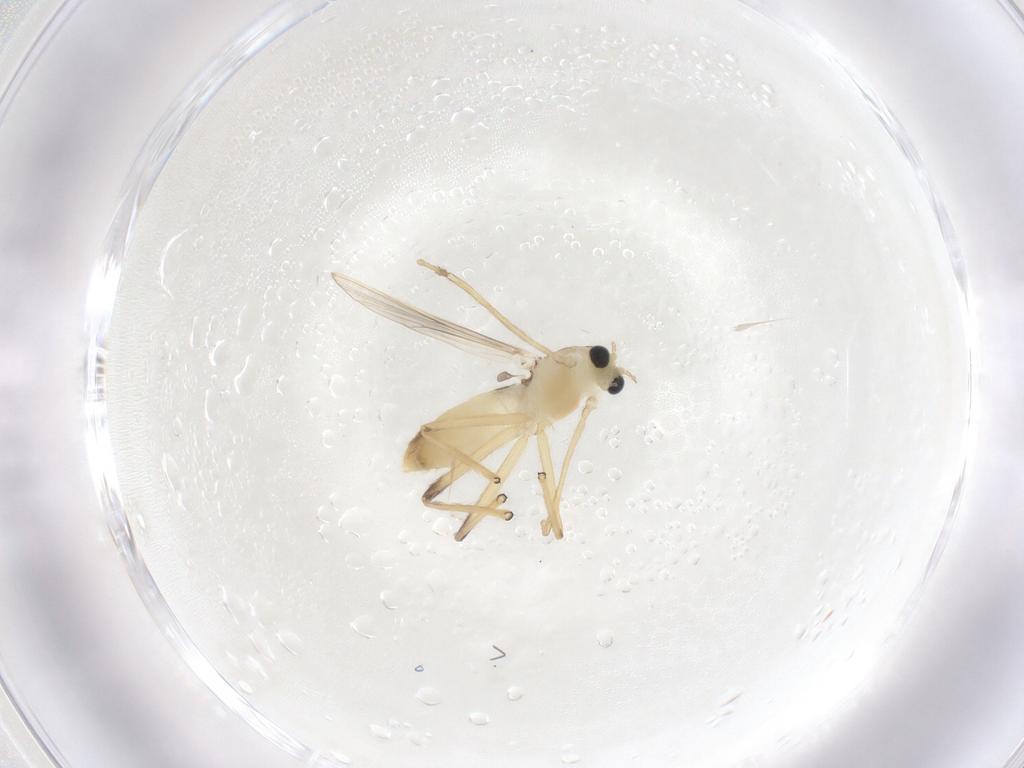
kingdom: Animalia
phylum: Arthropoda
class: Insecta
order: Diptera
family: Chironomidae
